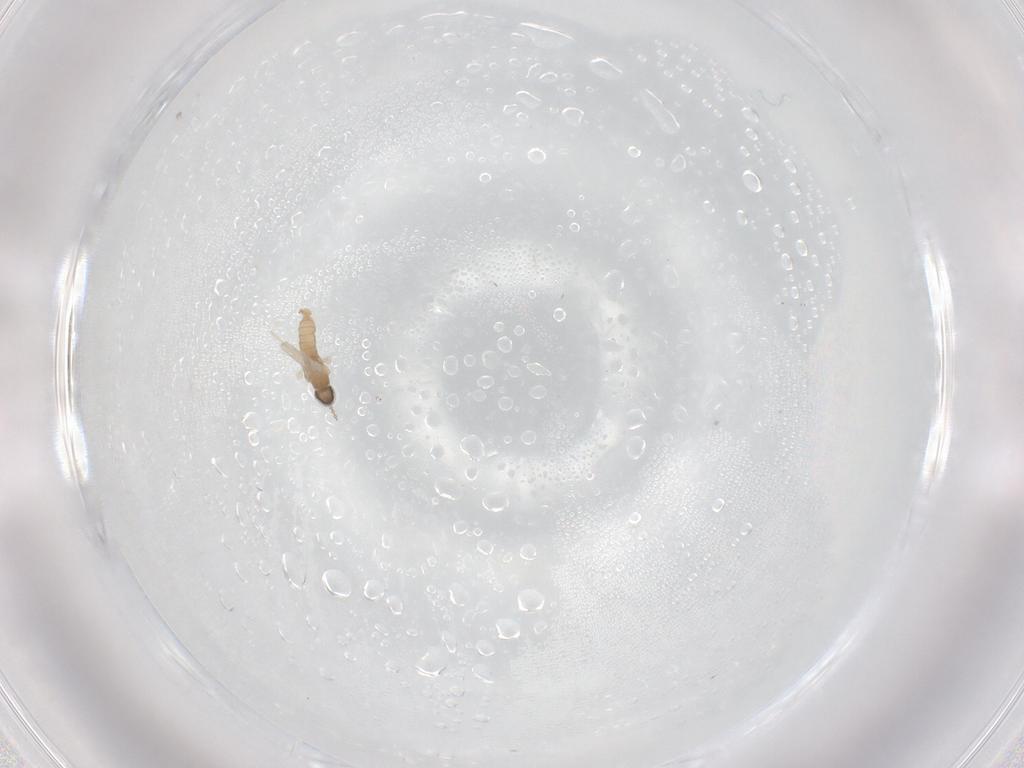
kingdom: Animalia
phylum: Arthropoda
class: Insecta
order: Diptera
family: Cecidomyiidae
